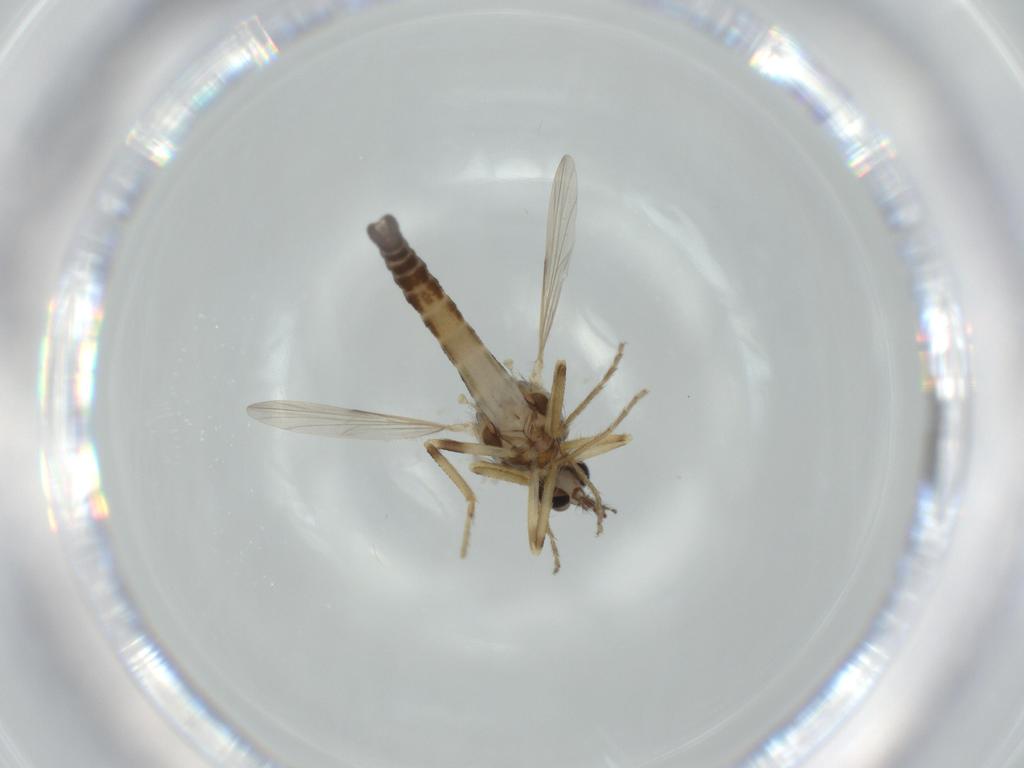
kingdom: Animalia
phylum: Arthropoda
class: Insecta
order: Diptera
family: Ceratopogonidae
